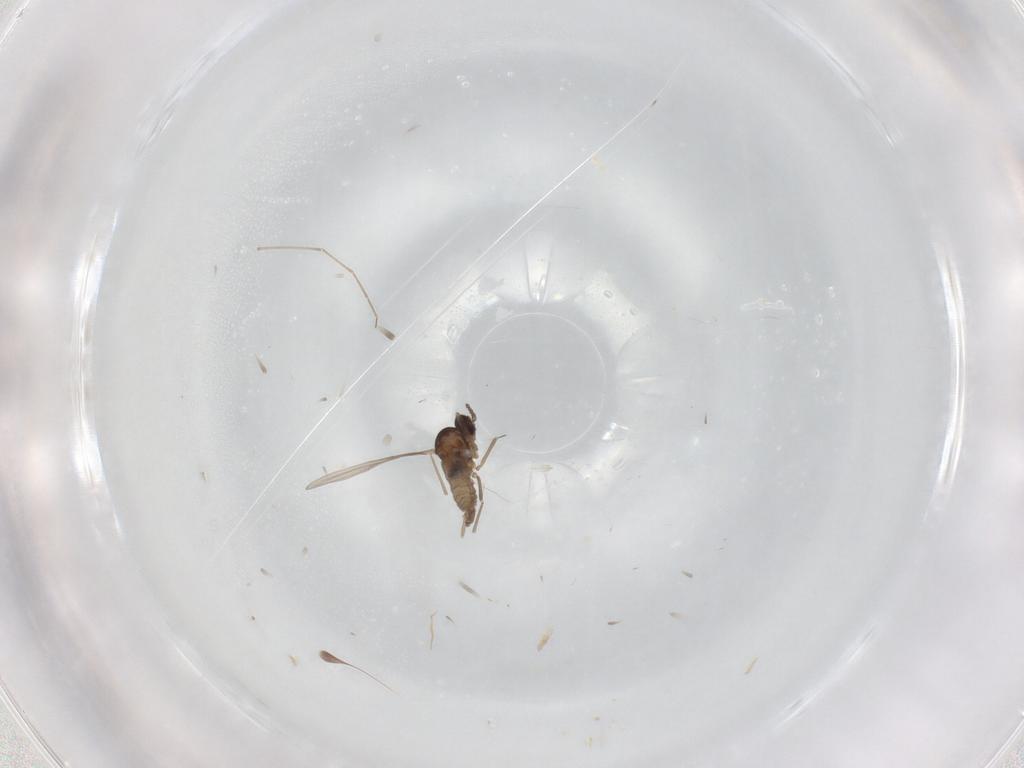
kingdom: Animalia
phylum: Arthropoda
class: Insecta
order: Diptera
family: Cecidomyiidae
